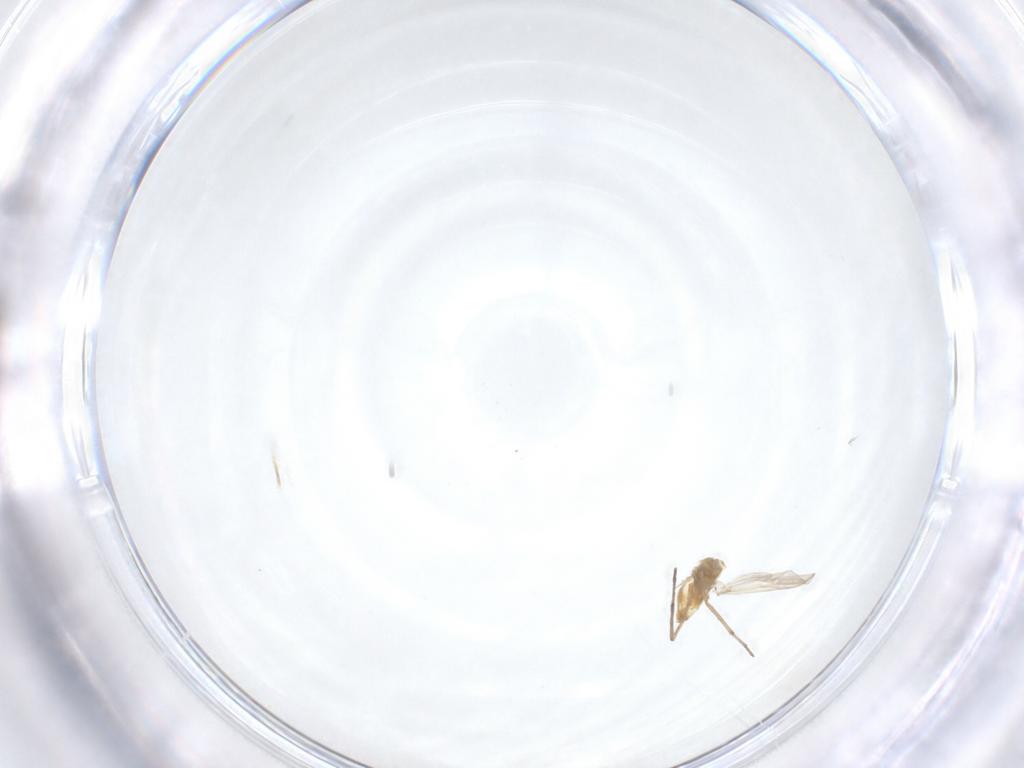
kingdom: Animalia
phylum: Arthropoda
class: Insecta
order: Diptera
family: Chironomidae
